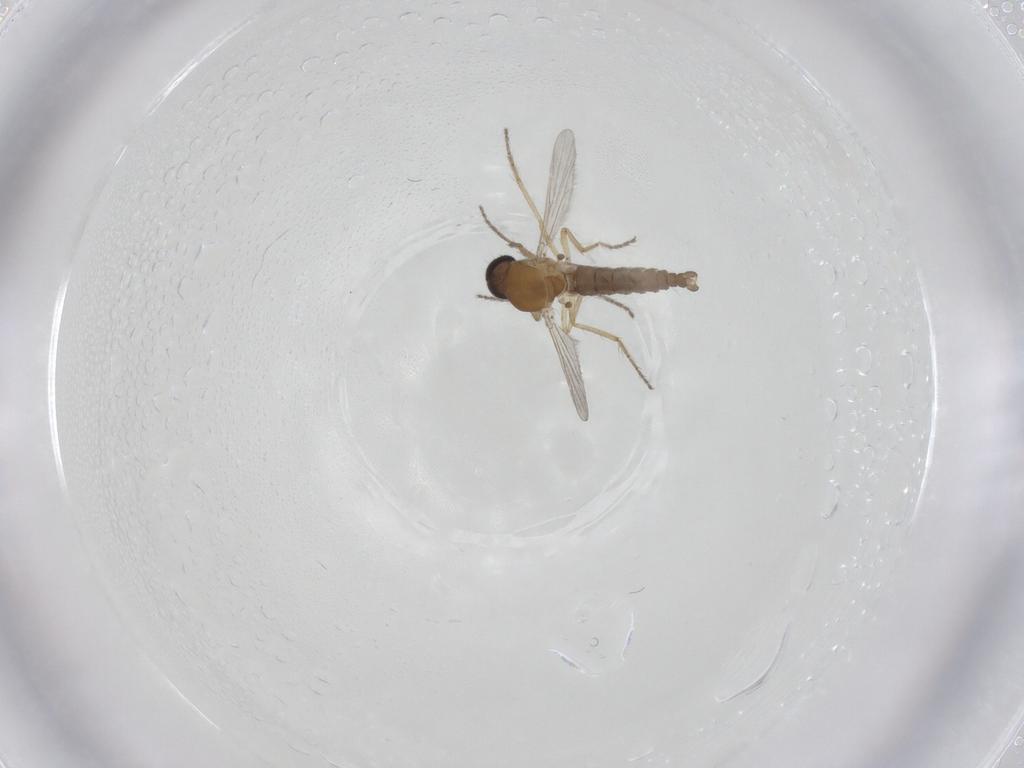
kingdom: Animalia
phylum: Arthropoda
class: Insecta
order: Diptera
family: Ceratopogonidae
